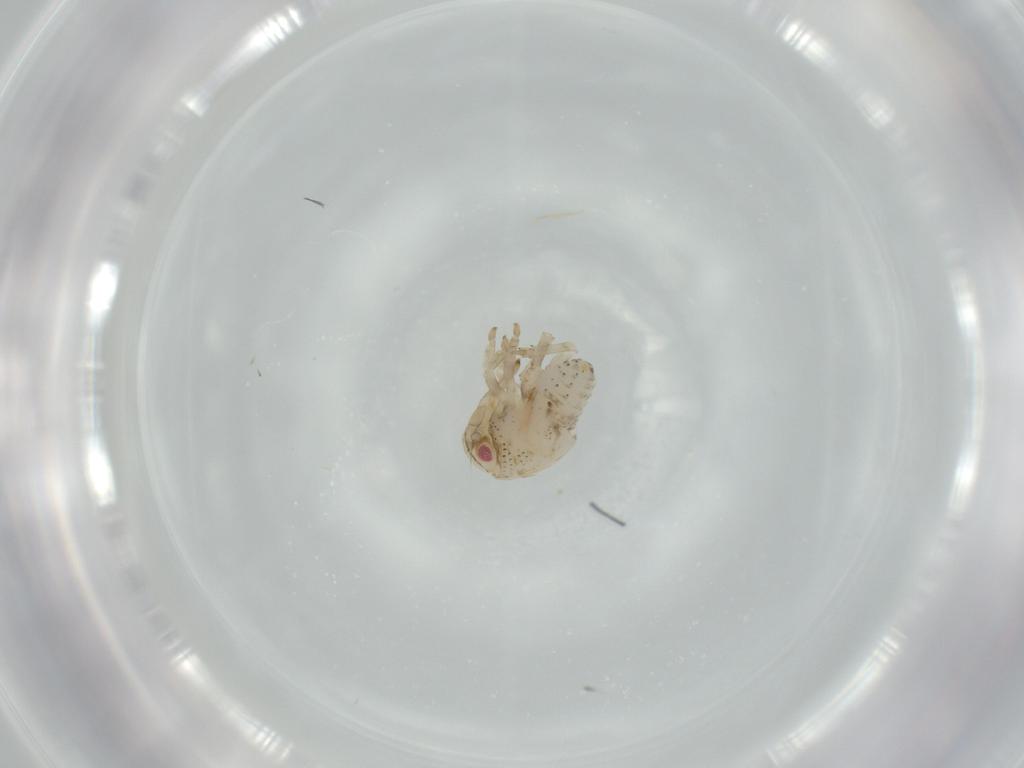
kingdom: Animalia
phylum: Arthropoda
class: Insecta
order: Hemiptera
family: Acanaloniidae
